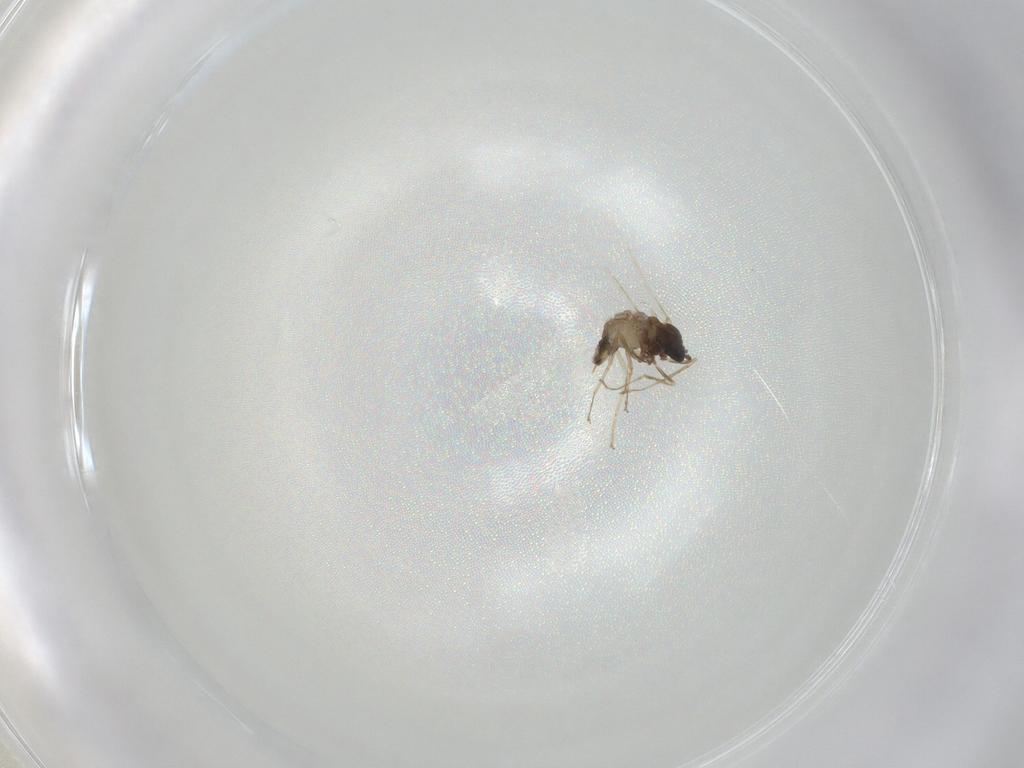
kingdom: Animalia
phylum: Arthropoda
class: Insecta
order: Diptera
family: Cecidomyiidae
